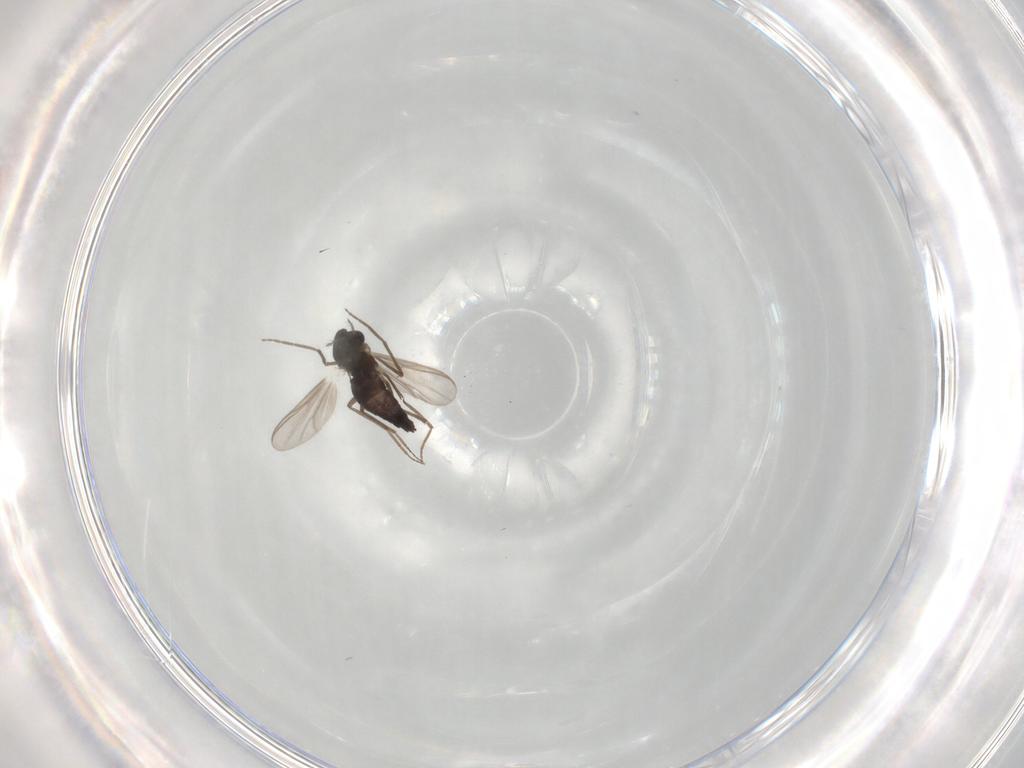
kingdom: Animalia
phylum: Arthropoda
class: Insecta
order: Diptera
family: Chironomidae
